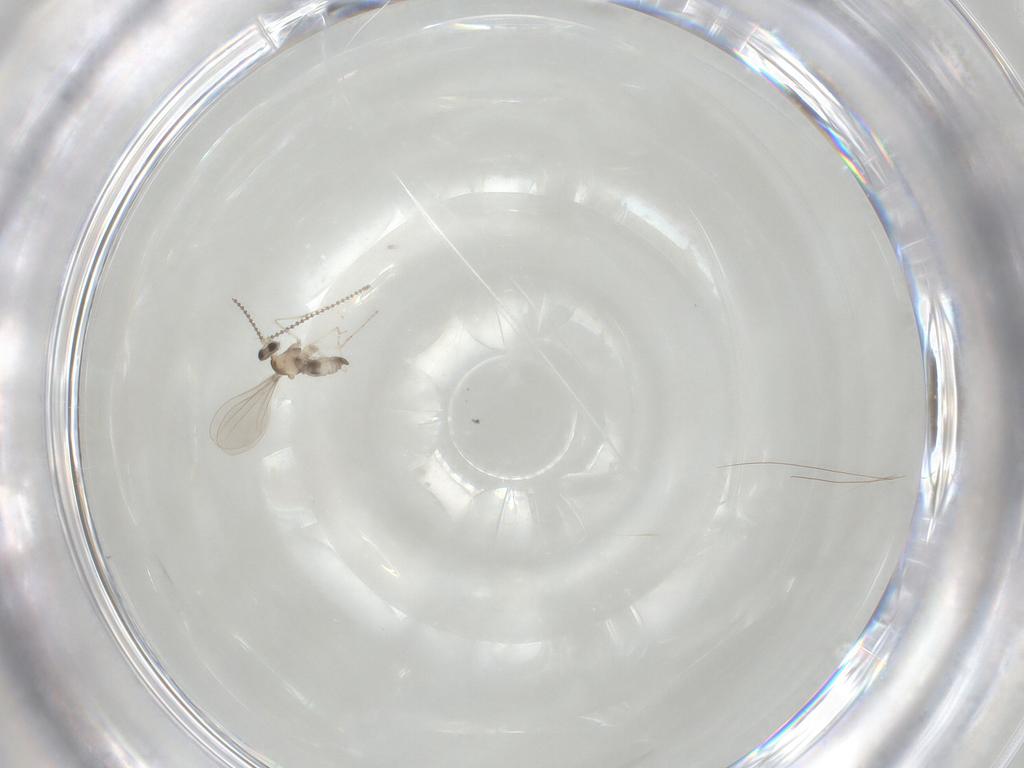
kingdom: Animalia
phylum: Arthropoda
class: Insecta
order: Diptera
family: Cecidomyiidae
